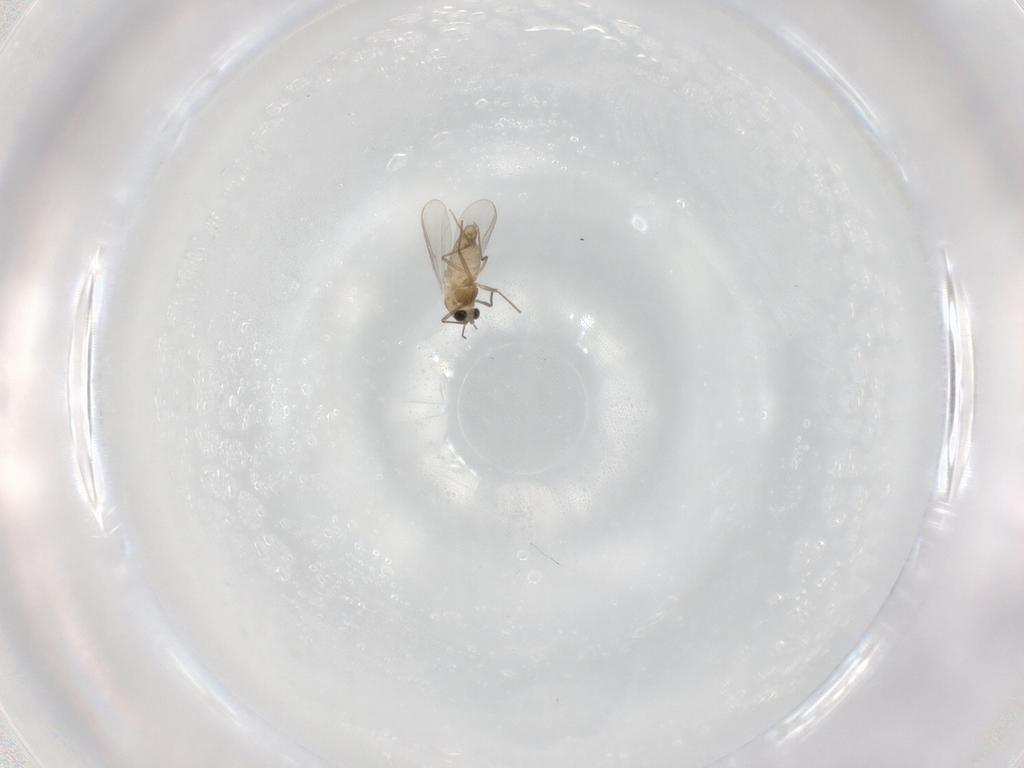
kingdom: Animalia
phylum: Arthropoda
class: Insecta
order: Diptera
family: Chironomidae
